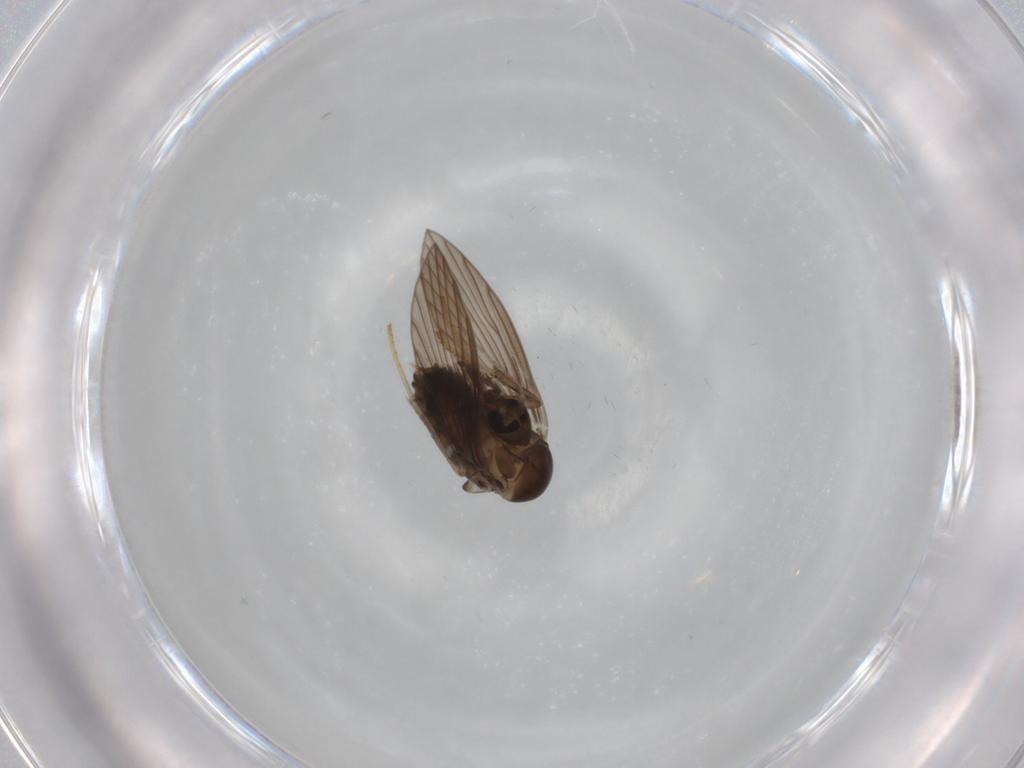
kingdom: Animalia
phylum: Arthropoda
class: Insecta
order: Diptera
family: Psychodidae
